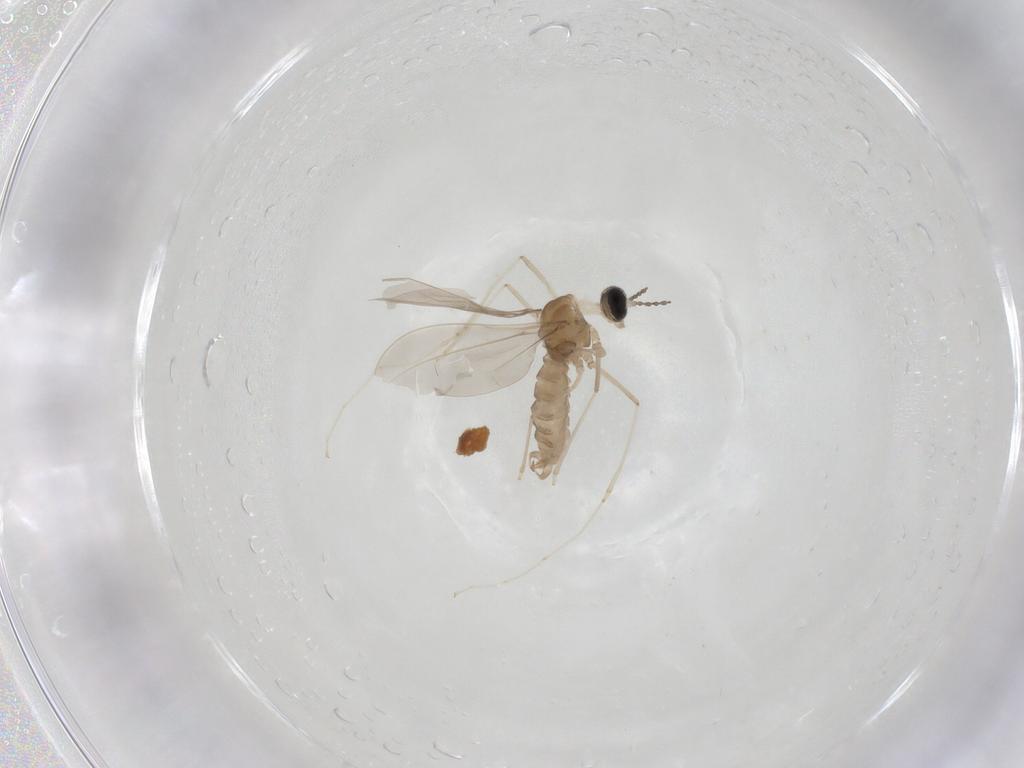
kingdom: Animalia
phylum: Arthropoda
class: Insecta
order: Diptera
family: Cecidomyiidae
